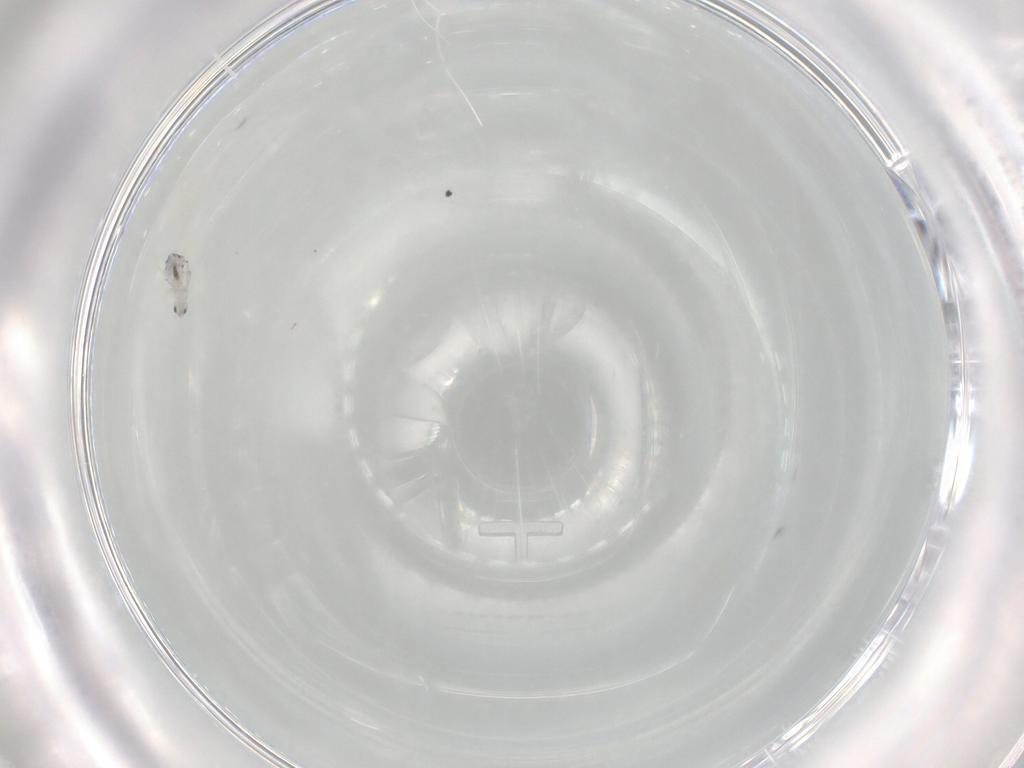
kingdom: Animalia
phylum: Arthropoda
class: Collembola
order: Entomobryomorpha
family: Entomobryidae
